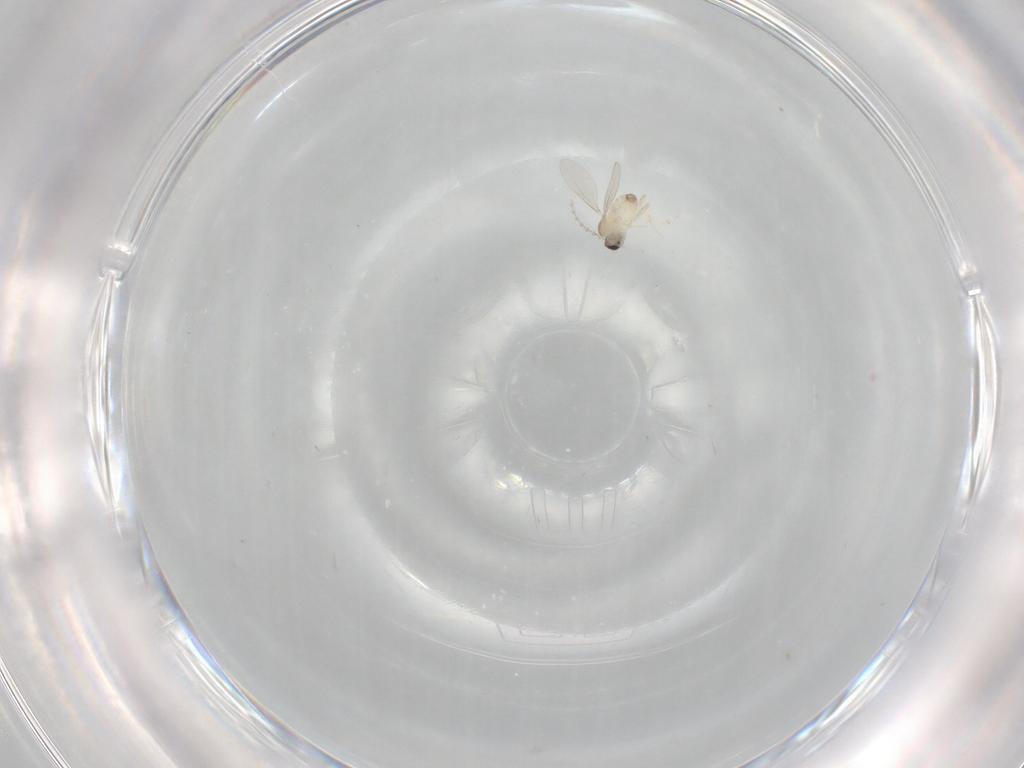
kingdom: Animalia
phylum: Arthropoda
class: Insecta
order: Diptera
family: Cecidomyiidae
